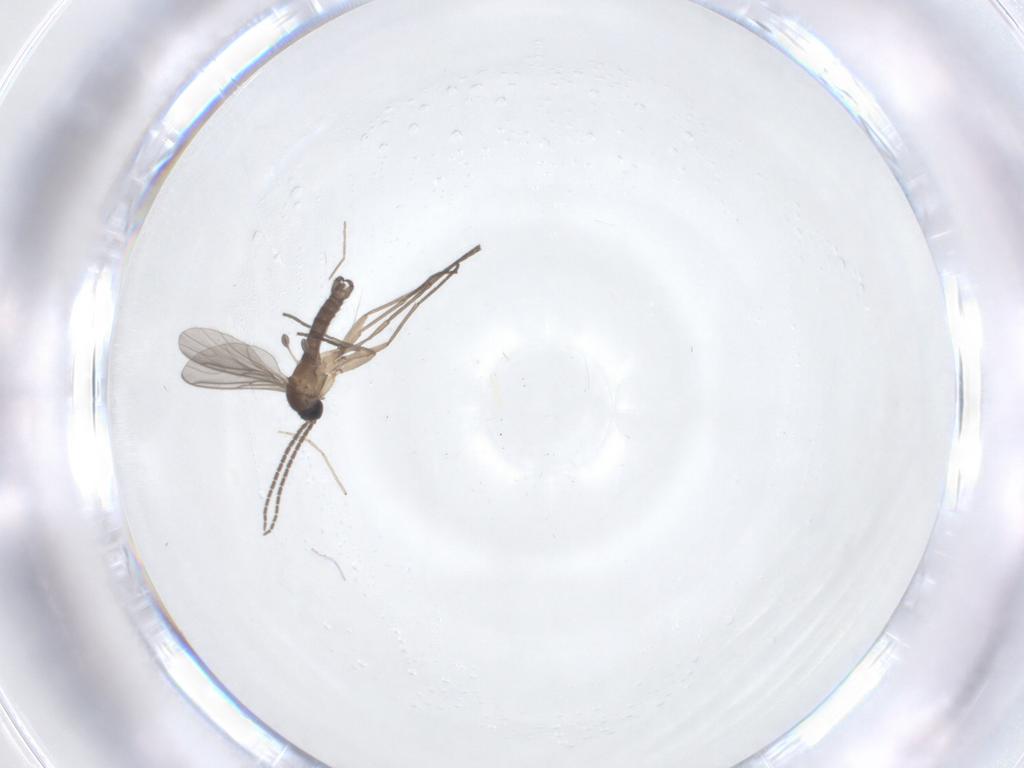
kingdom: Animalia
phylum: Arthropoda
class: Insecta
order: Diptera
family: Sciaridae
